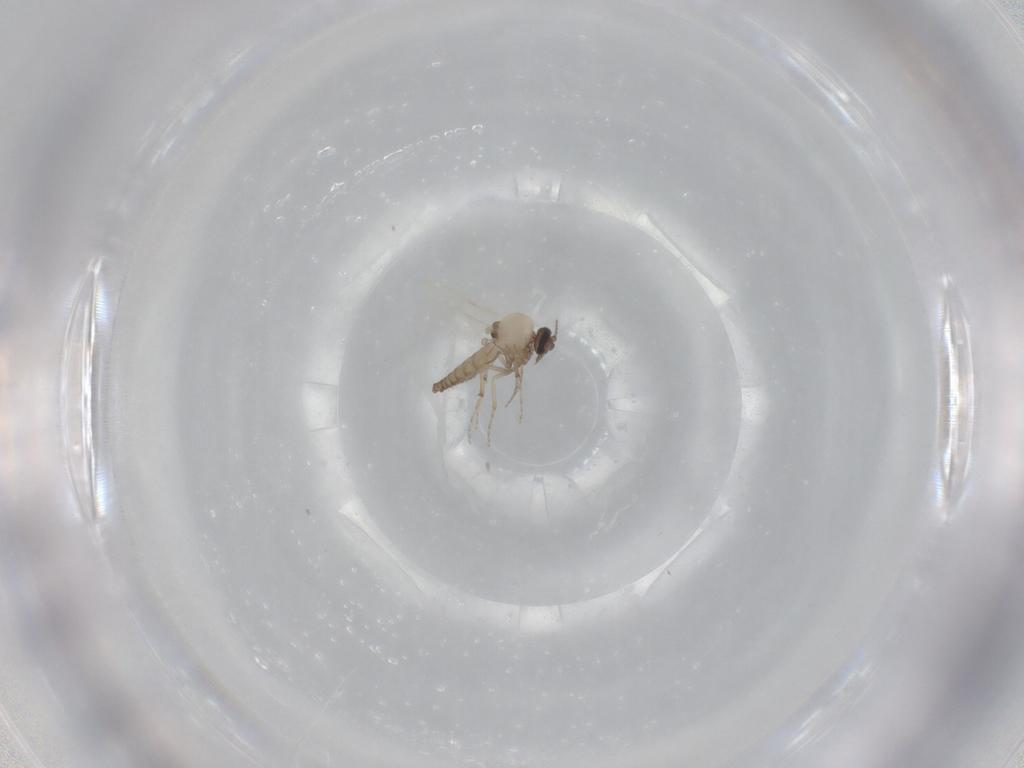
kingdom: Animalia
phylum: Arthropoda
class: Insecta
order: Diptera
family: Ceratopogonidae
